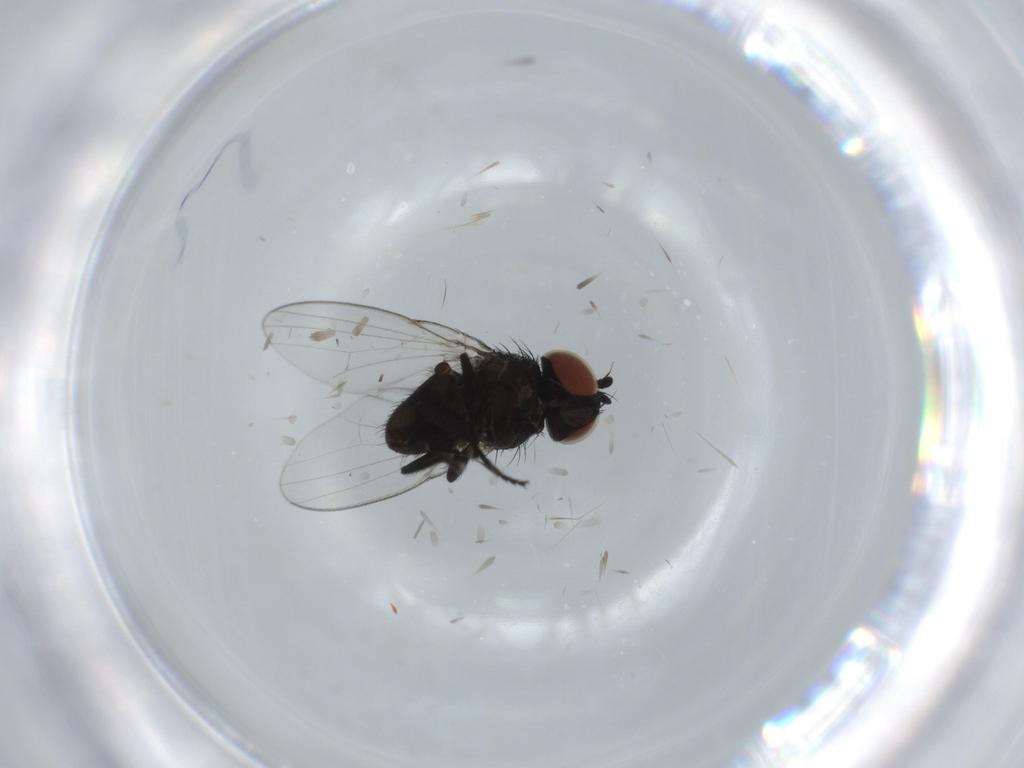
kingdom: Animalia
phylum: Arthropoda
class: Insecta
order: Diptera
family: Milichiidae
